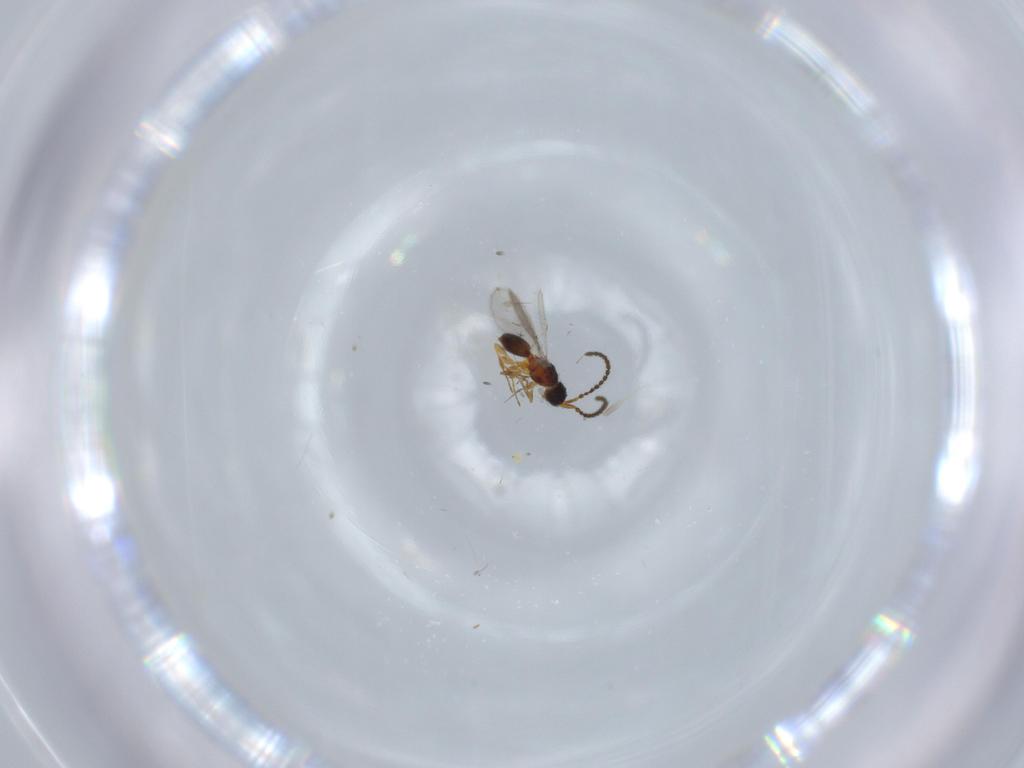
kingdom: Animalia
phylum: Arthropoda
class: Insecta
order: Hymenoptera
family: Diapriidae
